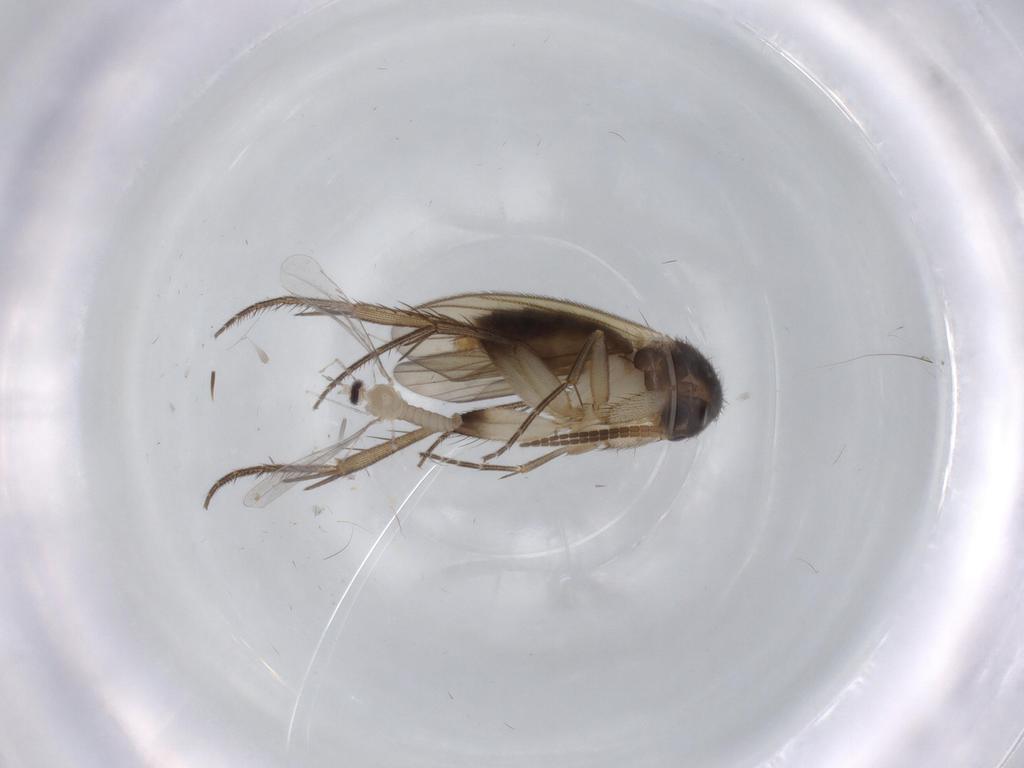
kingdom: Animalia
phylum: Arthropoda
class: Insecta
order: Diptera
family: Cecidomyiidae
